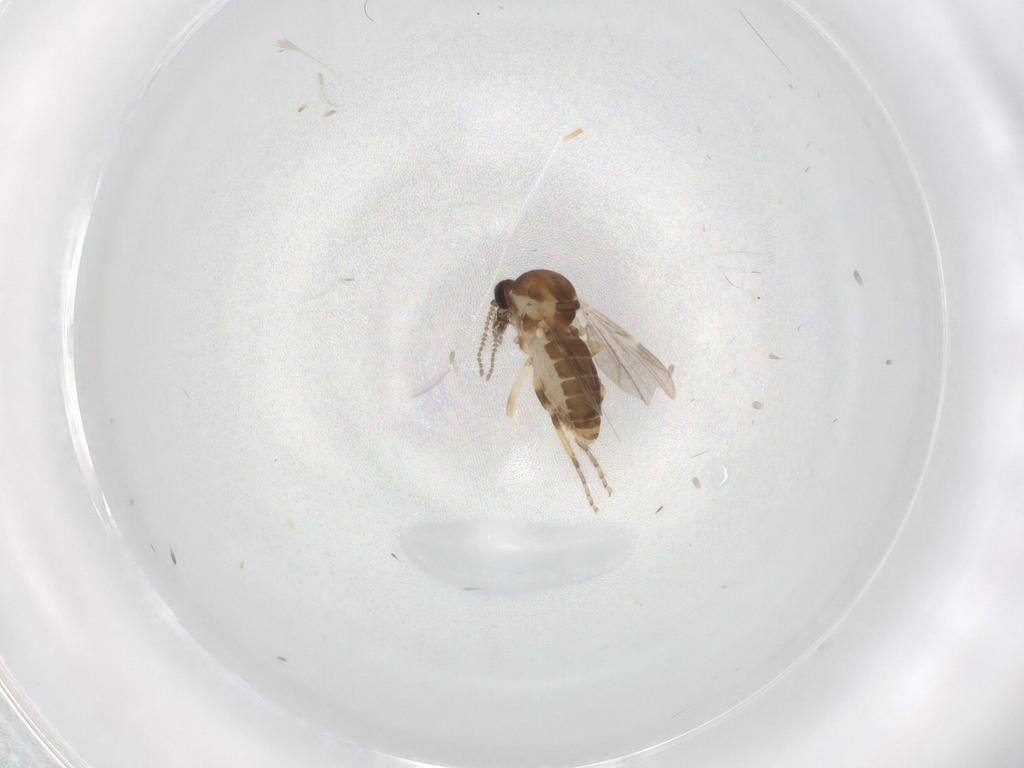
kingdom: Animalia
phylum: Arthropoda
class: Insecta
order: Diptera
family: Ceratopogonidae
